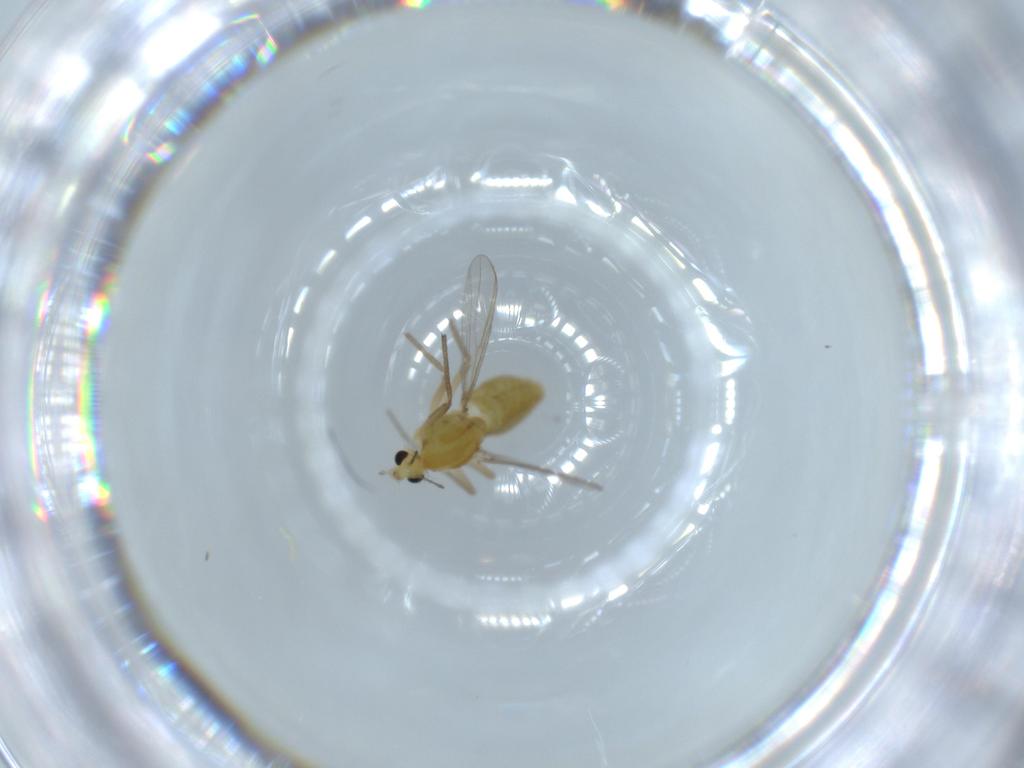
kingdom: Animalia
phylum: Arthropoda
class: Insecta
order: Diptera
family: Chironomidae
